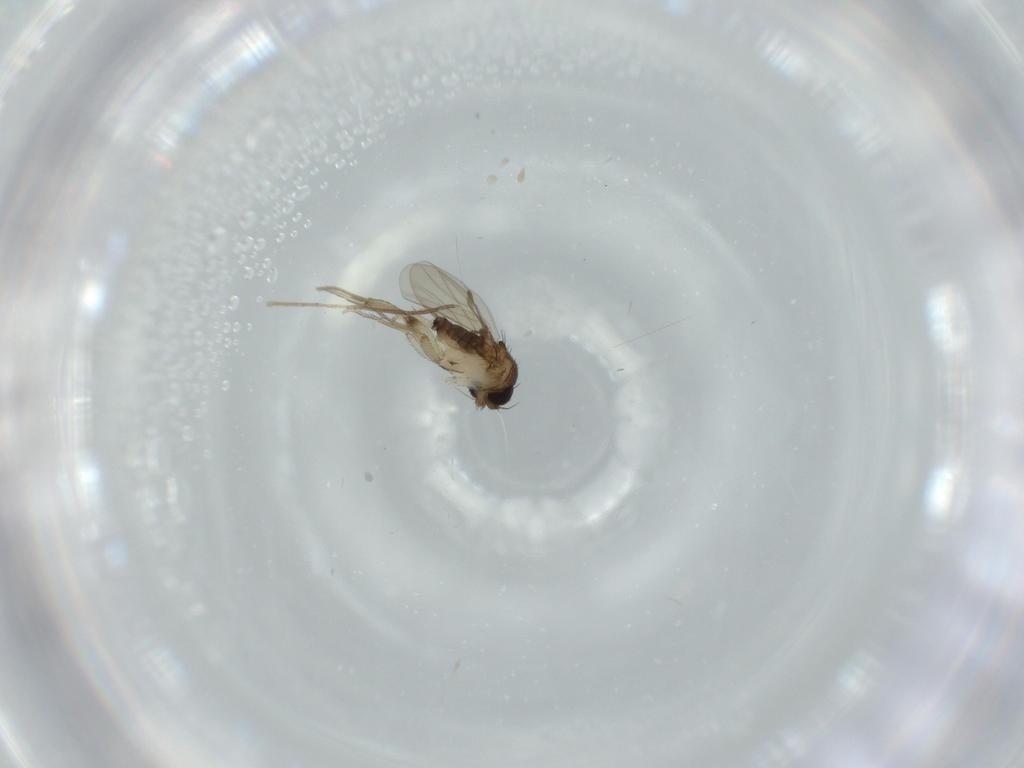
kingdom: Animalia
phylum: Arthropoda
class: Insecta
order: Diptera
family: Phoridae
